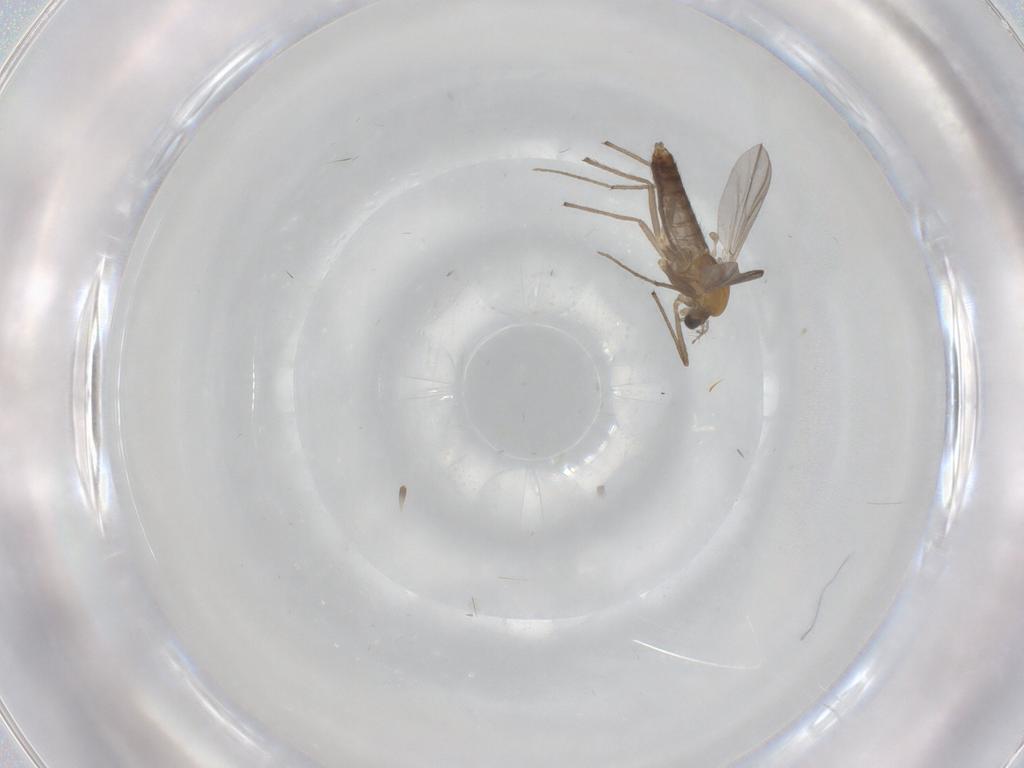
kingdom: Animalia
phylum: Arthropoda
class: Insecta
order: Diptera
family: Chironomidae
